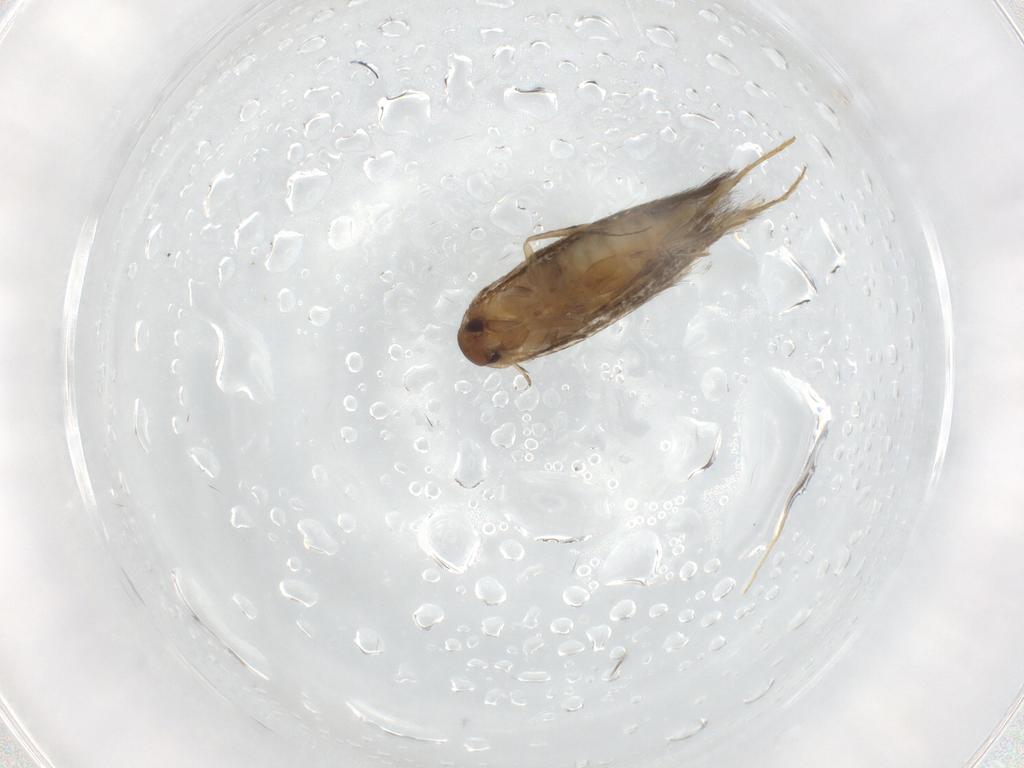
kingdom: Animalia
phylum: Arthropoda
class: Insecta
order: Lepidoptera
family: Elachistidae
